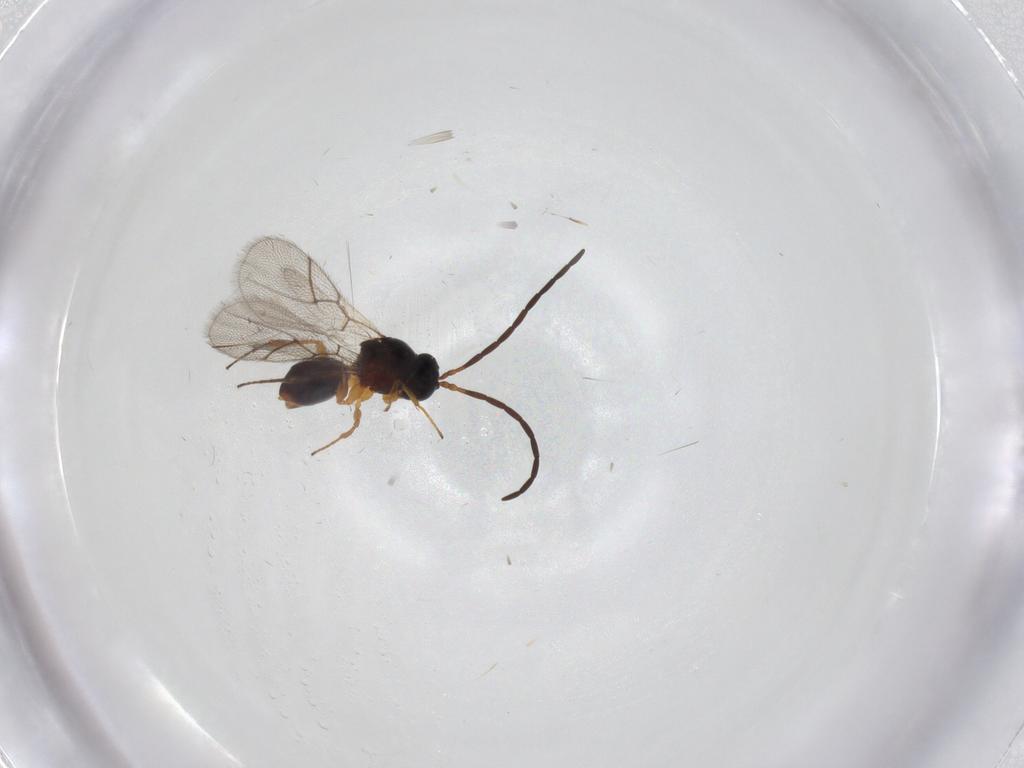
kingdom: Animalia
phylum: Arthropoda
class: Insecta
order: Hymenoptera
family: Figitidae
